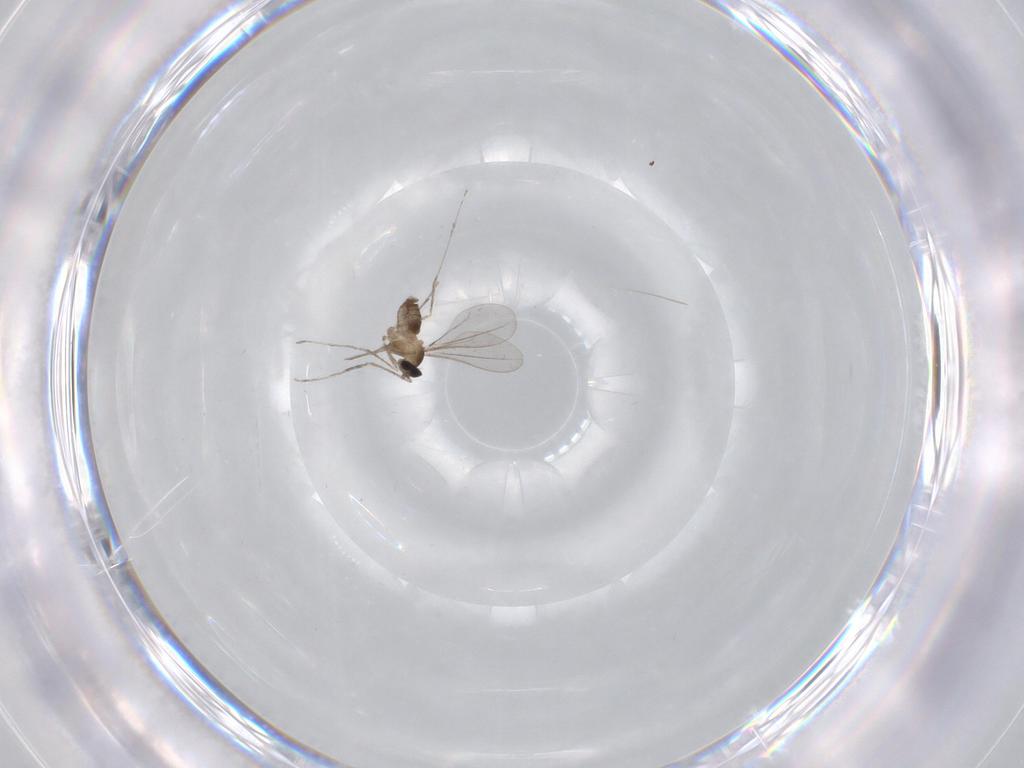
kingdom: Animalia
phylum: Arthropoda
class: Insecta
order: Diptera
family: Cecidomyiidae
